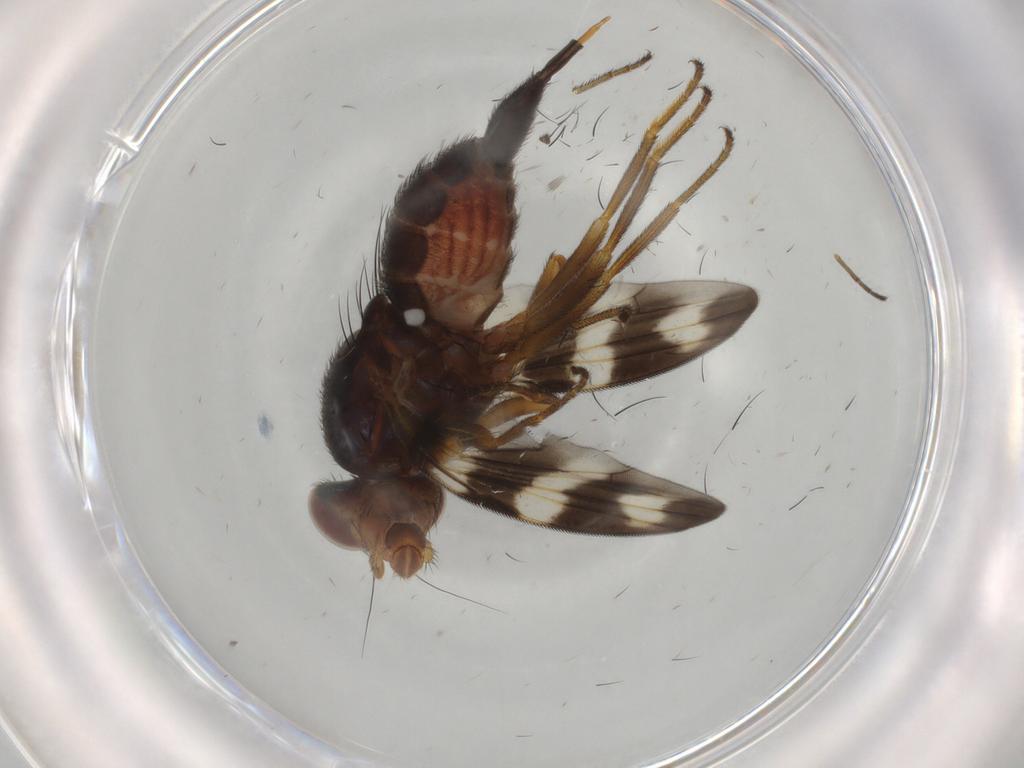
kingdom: Animalia
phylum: Arthropoda
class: Insecta
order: Diptera
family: Ulidiidae
